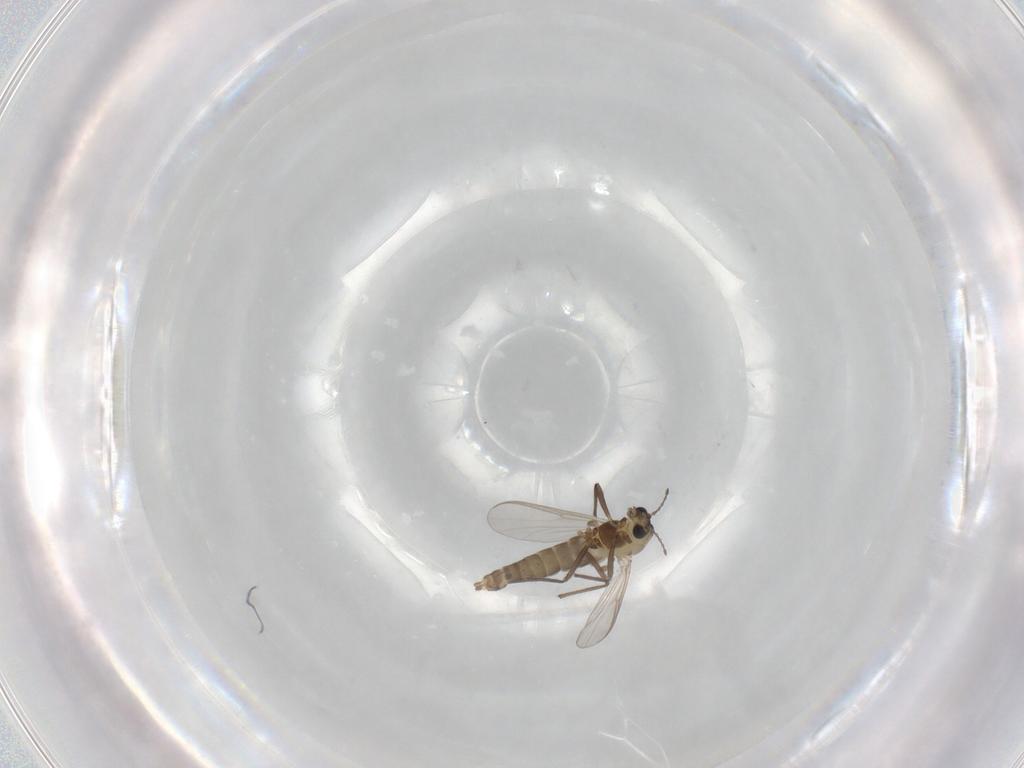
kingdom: Animalia
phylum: Arthropoda
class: Insecta
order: Diptera
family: Chironomidae
